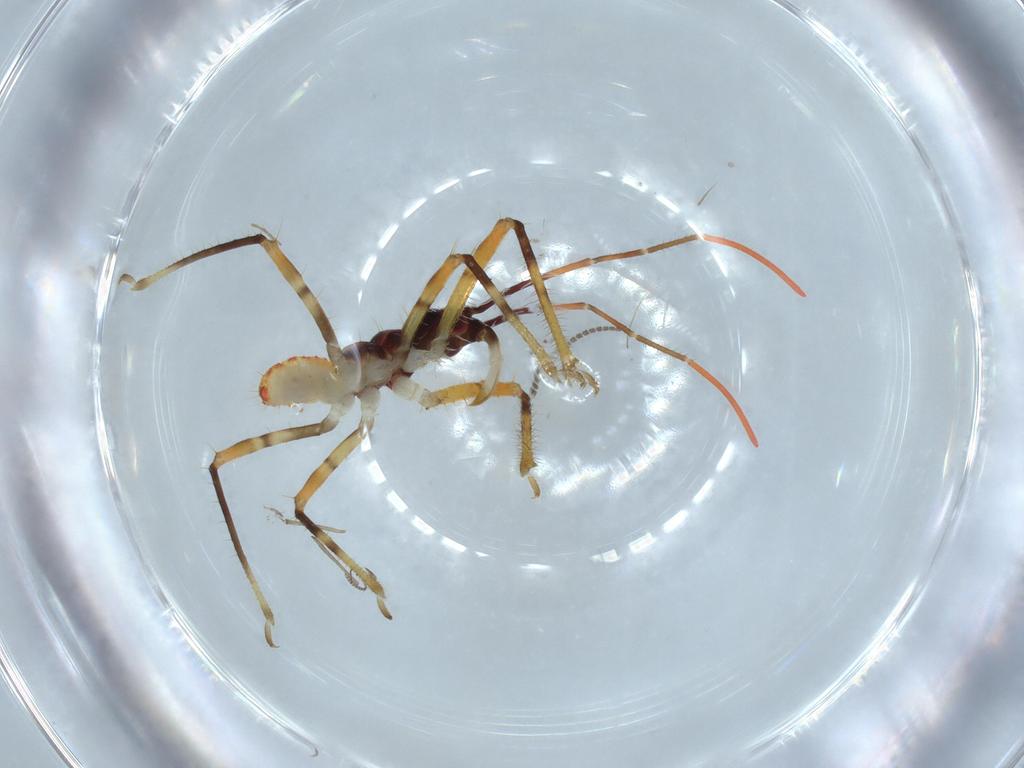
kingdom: Animalia
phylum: Arthropoda
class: Insecta
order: Hemiptera
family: Reduviidae
